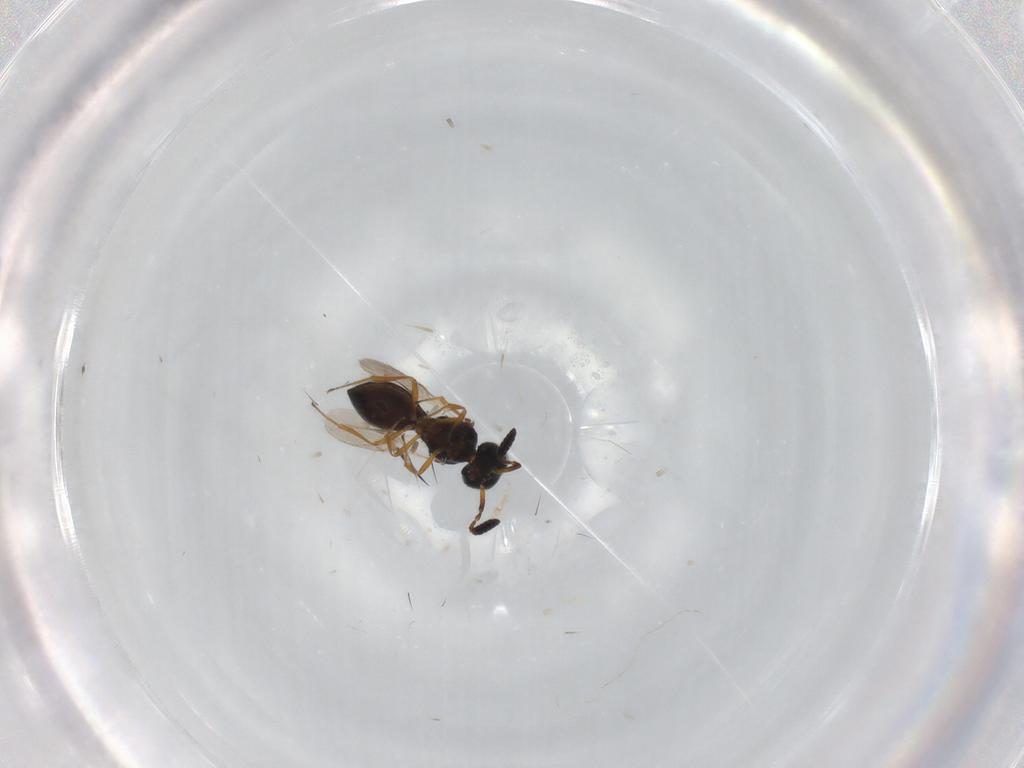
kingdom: Animalia
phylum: Arthropoda
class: Insecta
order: Hymenoptera
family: Scelionidae
